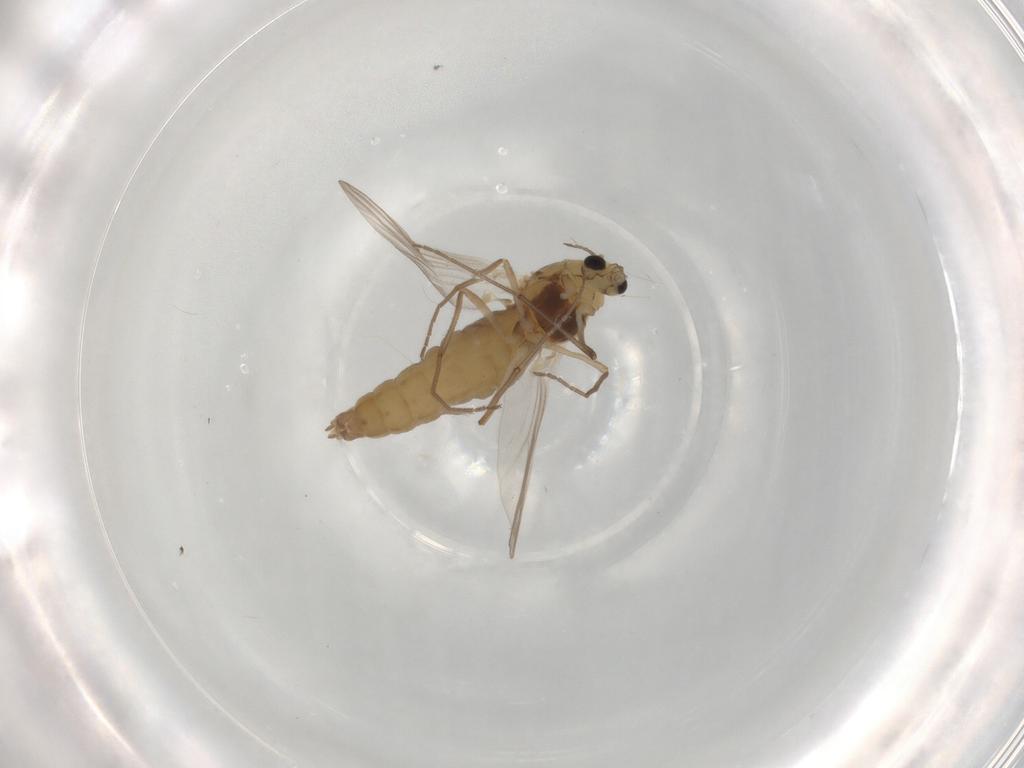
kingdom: Animalia
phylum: Arthropoda
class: Insecta
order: Diptera
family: Chironomidae
